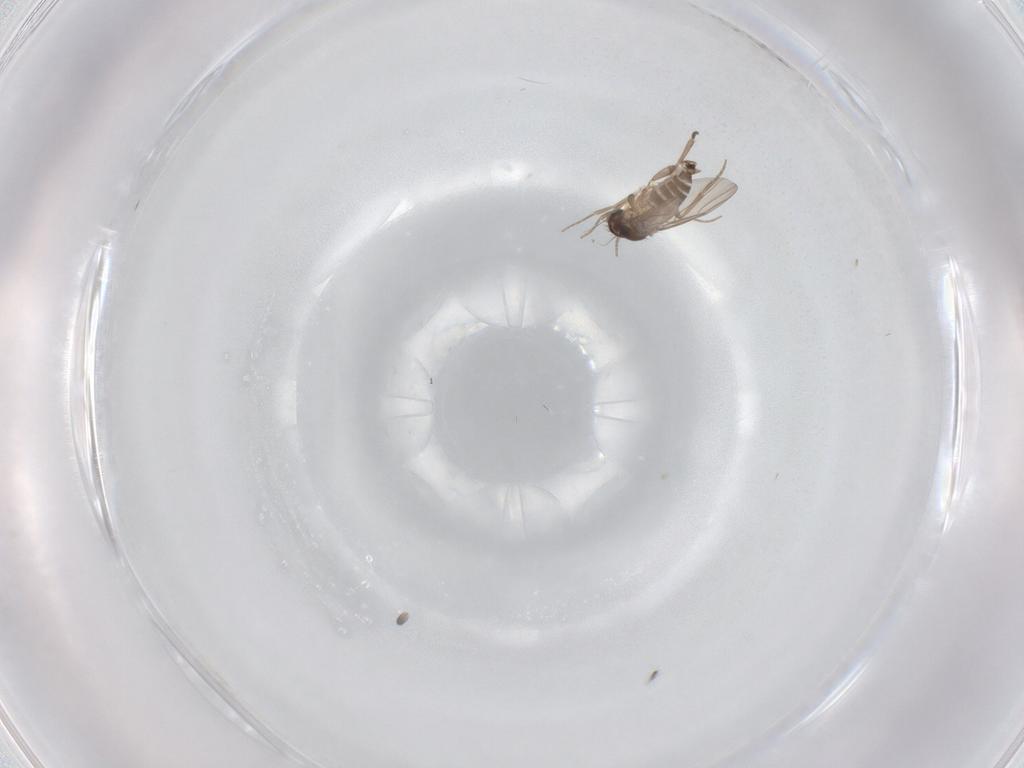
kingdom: Animalia
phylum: Arthropoda
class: Insecta
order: Diptera
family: Phoridae
